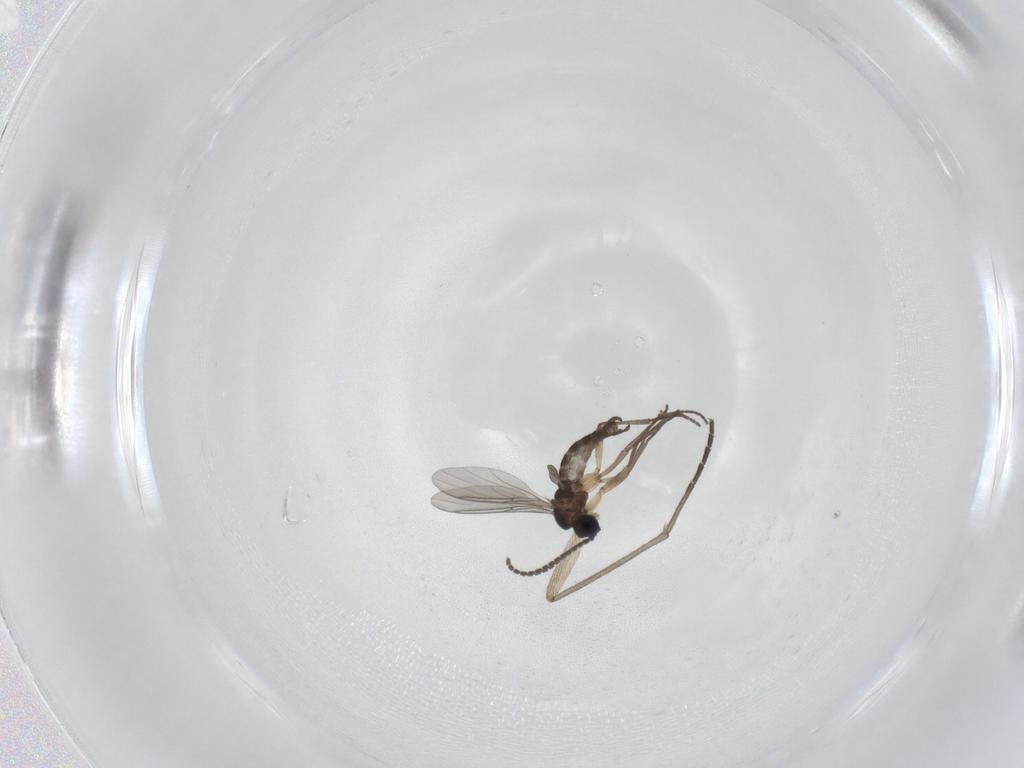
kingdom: Animalia
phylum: Arthropoda
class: Insecta
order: Diptera
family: Sciaridae
